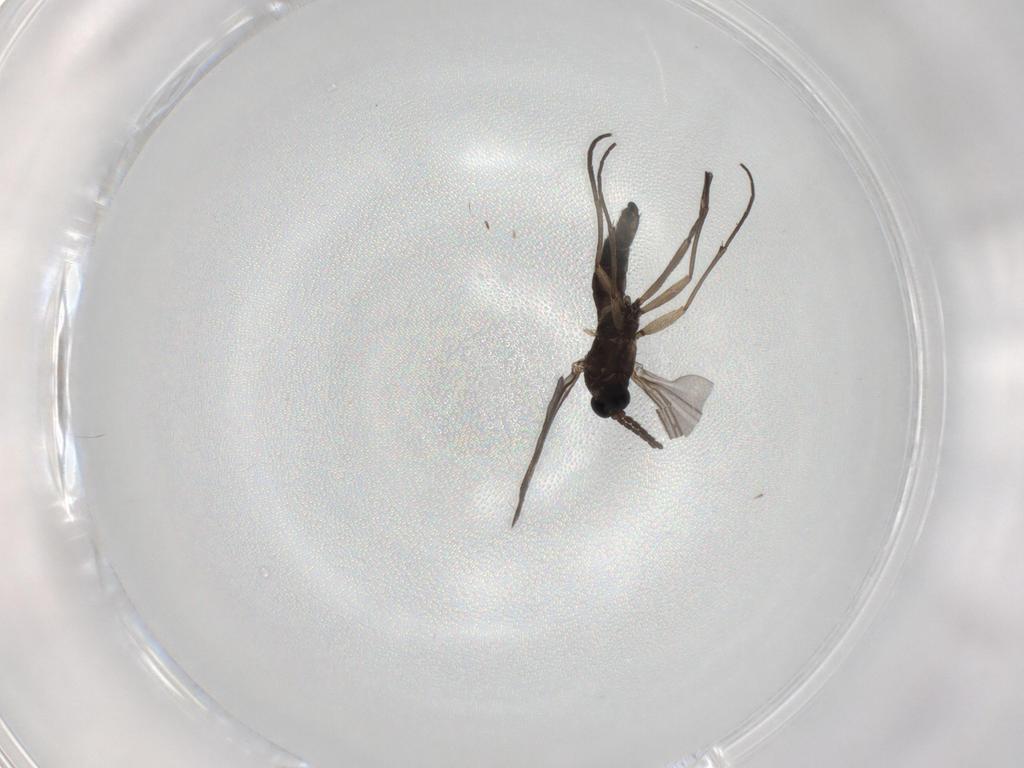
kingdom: Animalia
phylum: Arthropoda
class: Insecta
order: Diptera
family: Sciaridae
